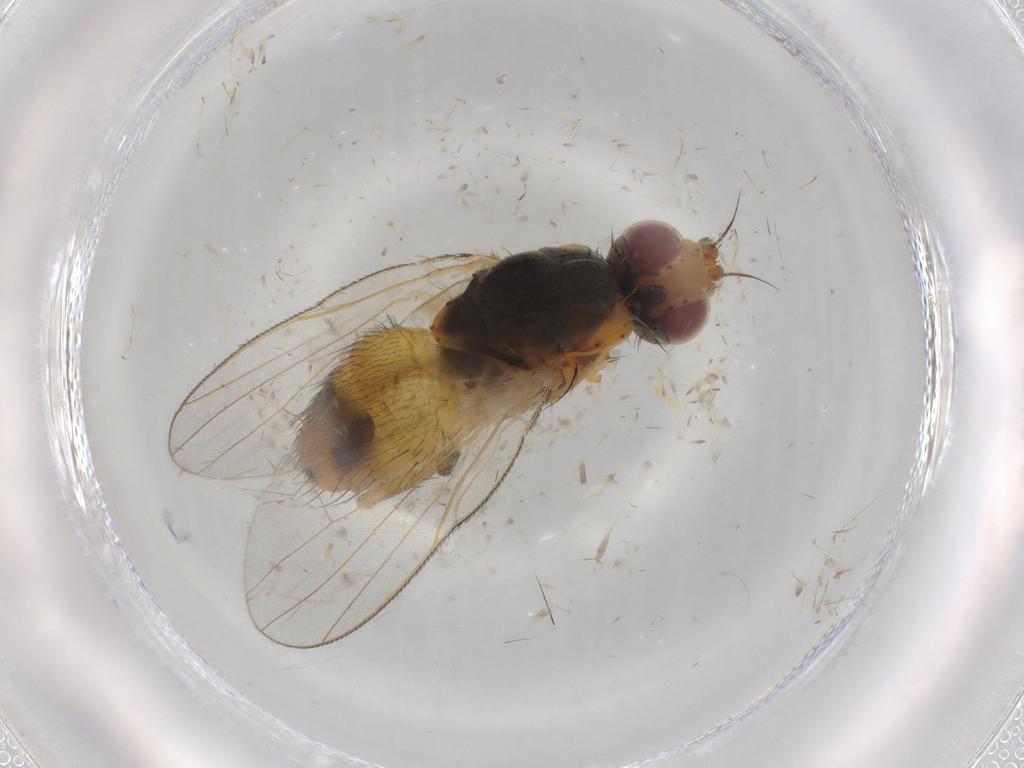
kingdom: Animalia
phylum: Arthropoda
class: Insecta
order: Diptera
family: Muscidae
